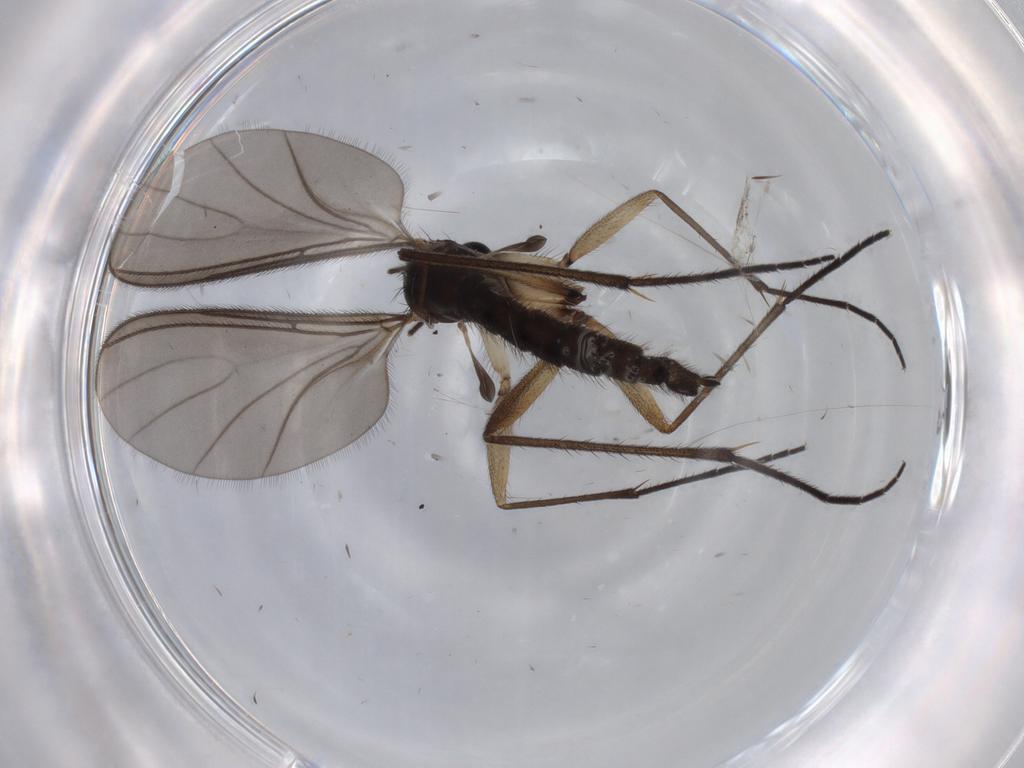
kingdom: Animalia
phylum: Arthropoda
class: Insecta
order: Diptera
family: Sciaridae
